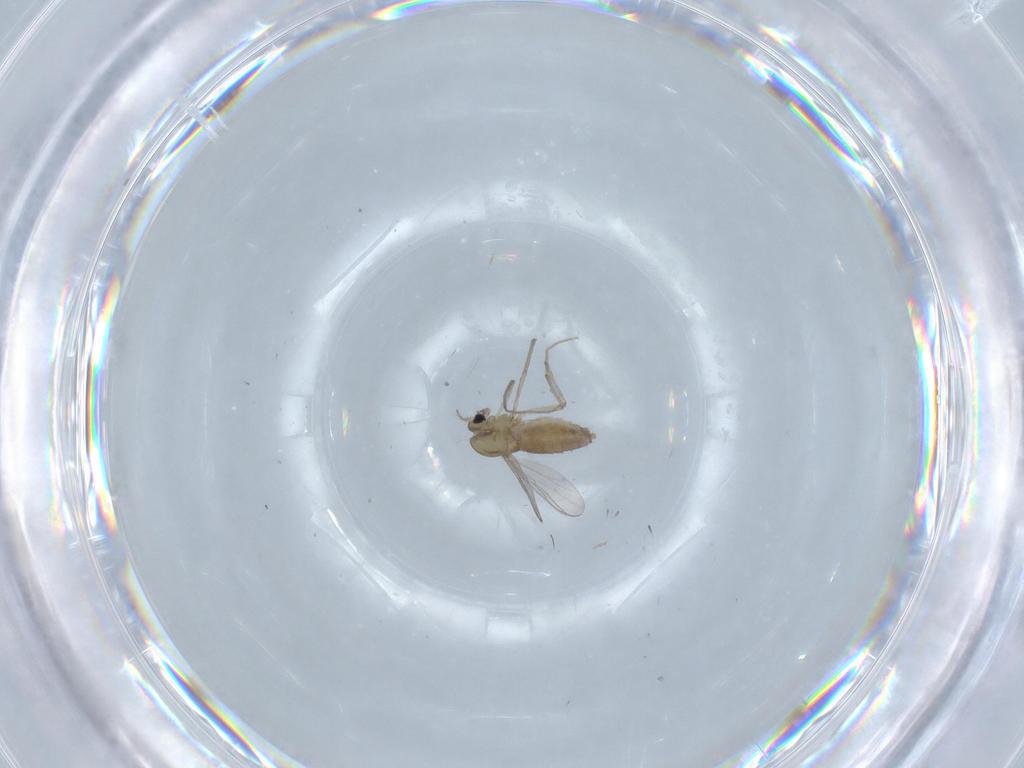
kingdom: Animalia
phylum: Arthropoda
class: Insecta
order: Diptera
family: Chironomidae
